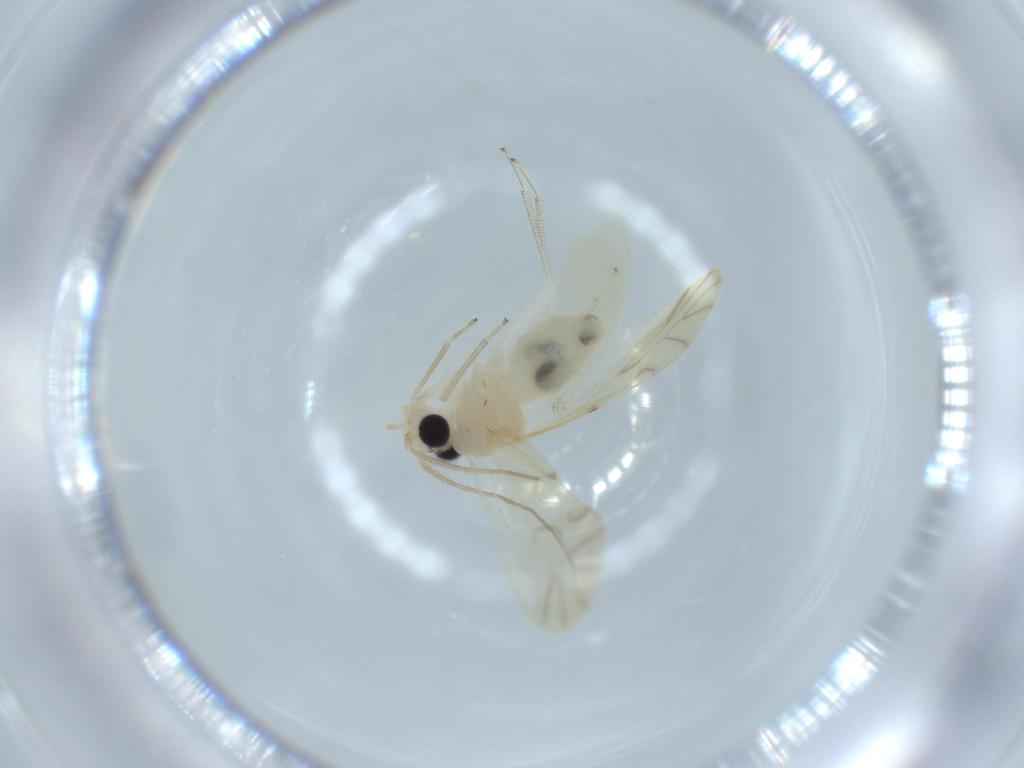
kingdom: Animalia
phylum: Arthropoda
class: Insecta
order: Psocodea
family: Caeciliusidae
